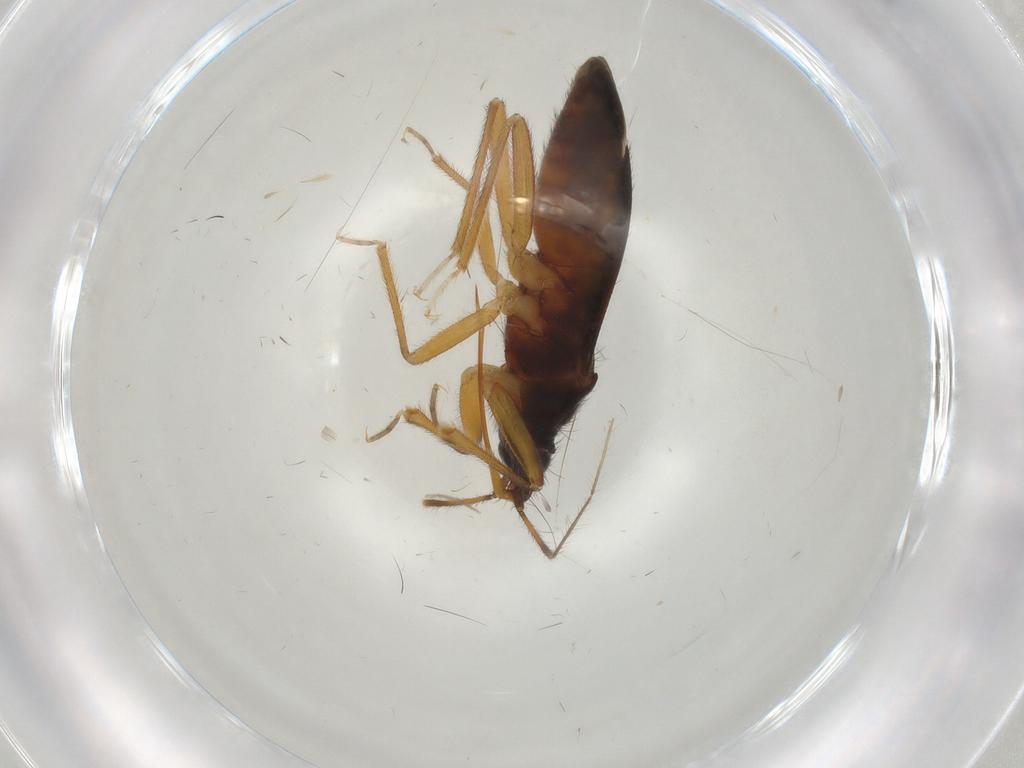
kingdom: Animalia
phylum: Arthropoda
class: Insecta
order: Hemiptera
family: Anthocoridae
